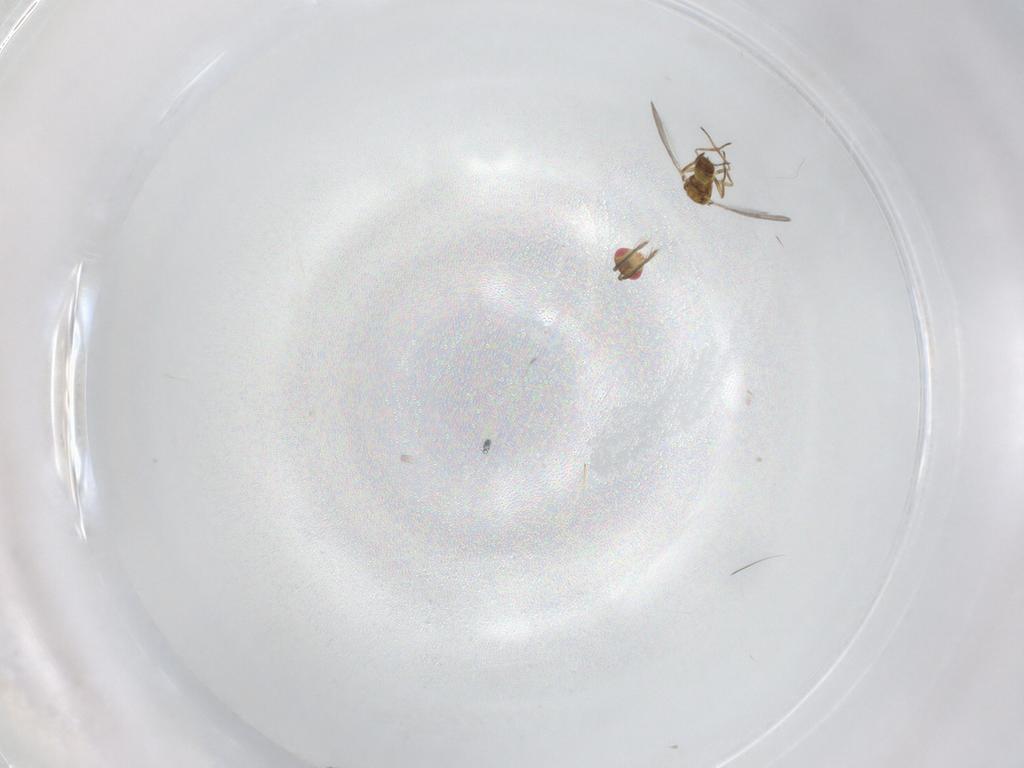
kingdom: Animalia
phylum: Arthropoda
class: Insecta
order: Hymenoptera
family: Eulophidae
